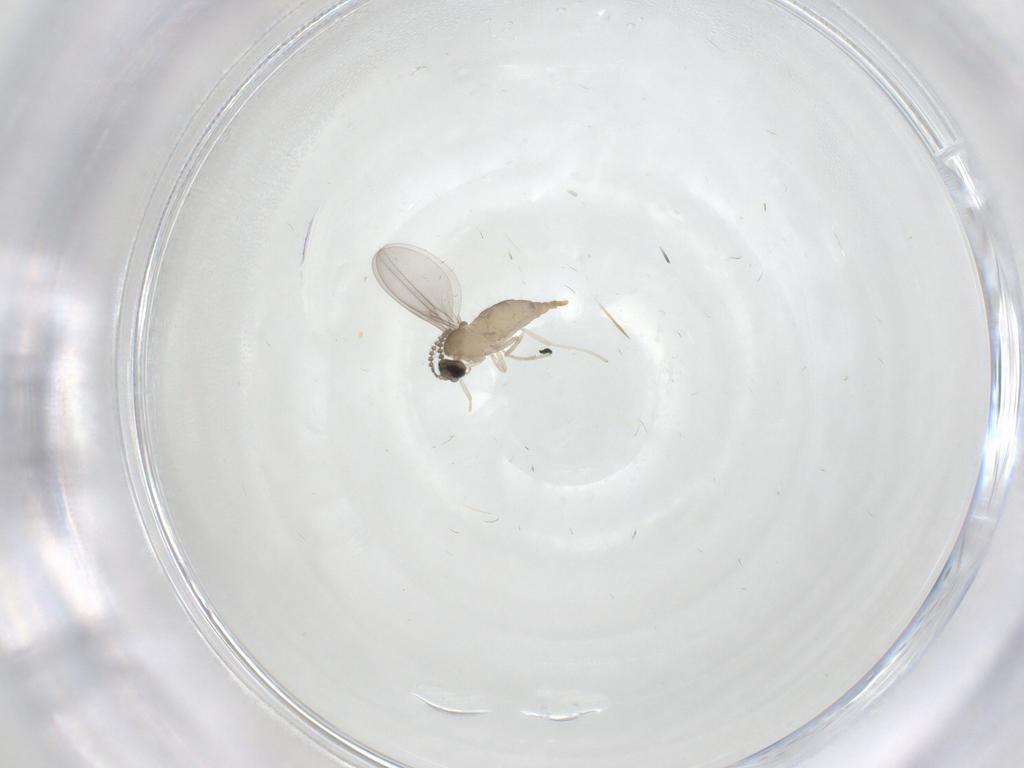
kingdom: Animalia
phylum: Arthropoda
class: Insecta
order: Diptera
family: Cecidomyiidae
